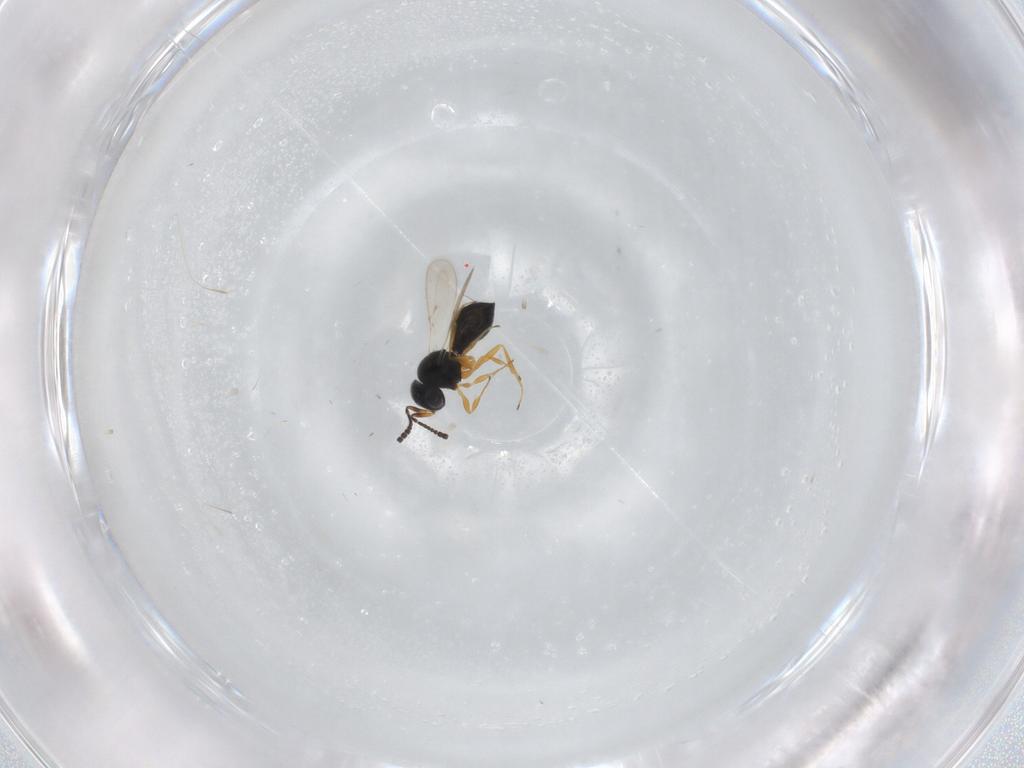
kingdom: Animalia
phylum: Arthropoda
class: Insecta
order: Hymenoptera
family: Scelionidae
